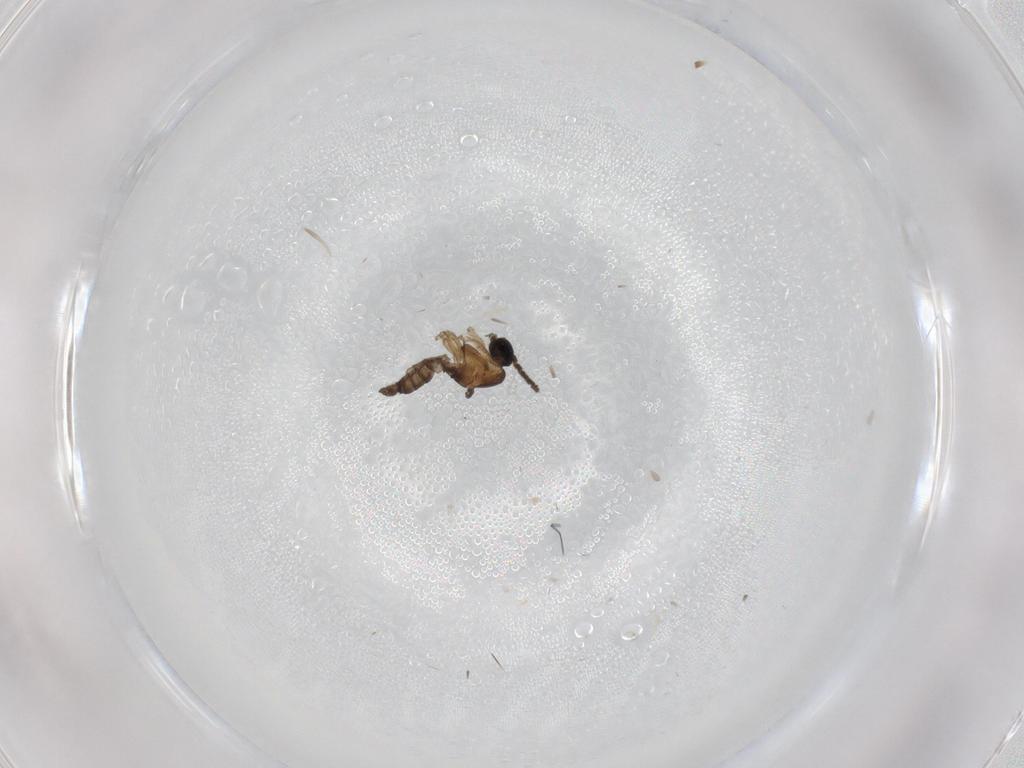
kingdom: Animalia
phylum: Arthropoda
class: Insecta
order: Diptera
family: Sciaridae
